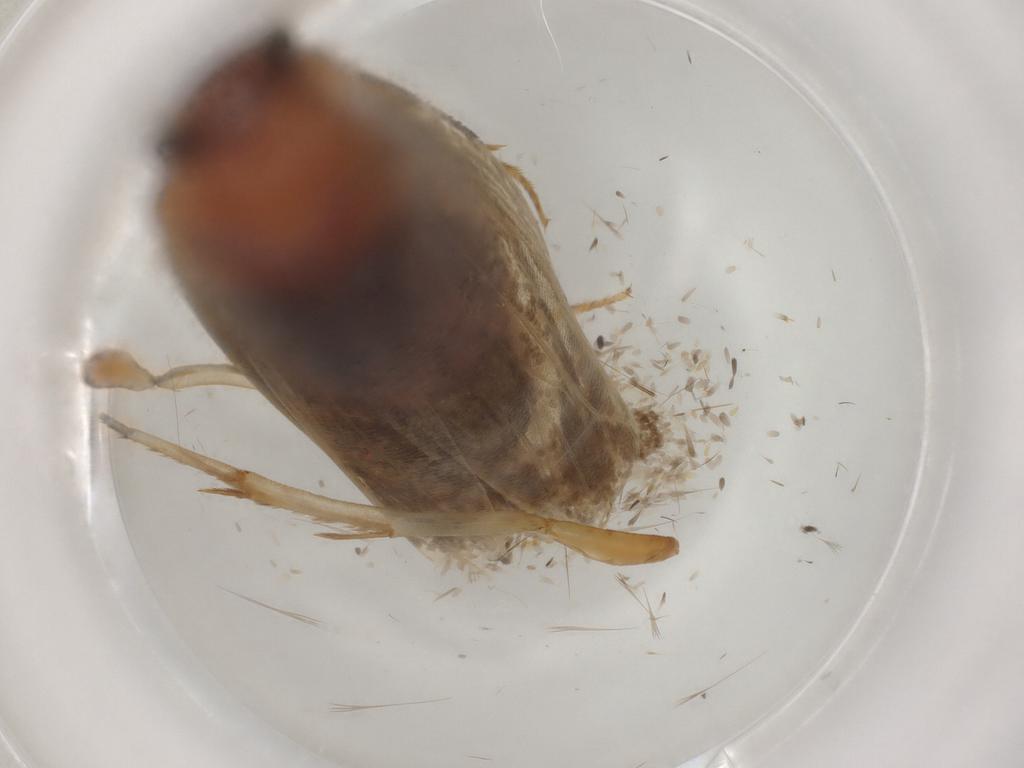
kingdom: Animalia
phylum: Arthropoda
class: Insecta
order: Lepidoptera
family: Tineidae
